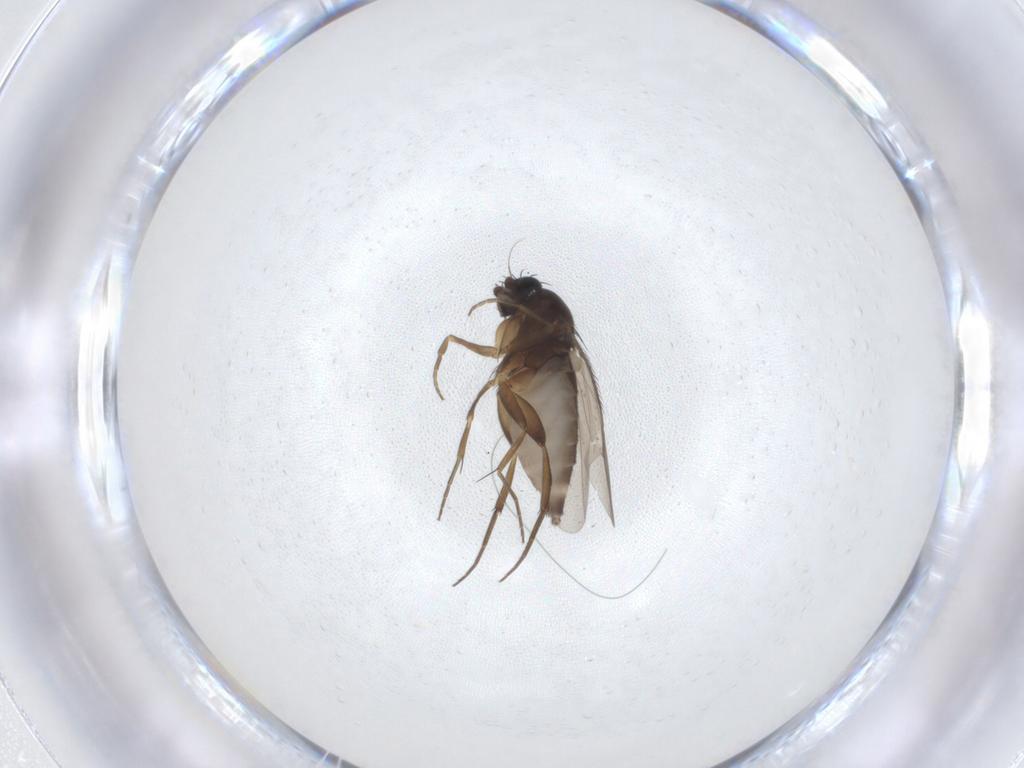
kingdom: Animalia
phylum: Arthropoda
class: Insecta
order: Diptera
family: Phoridae
